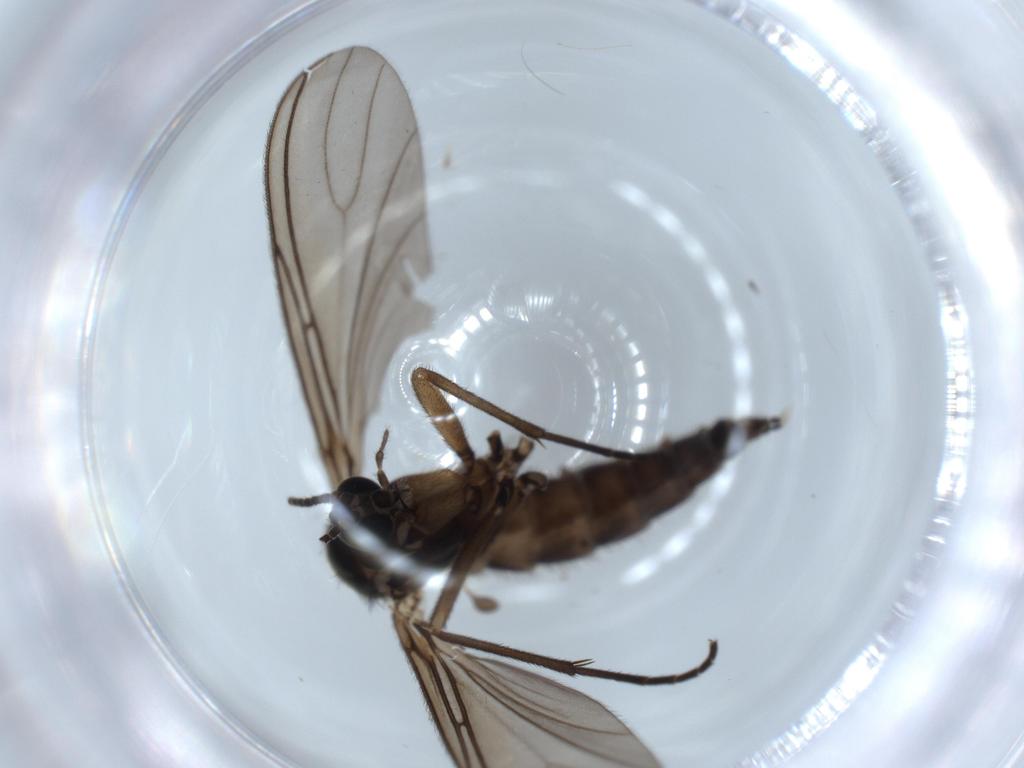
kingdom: Animalia
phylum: Arthropoda
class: Insecta
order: Diptera
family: Sciaridae
